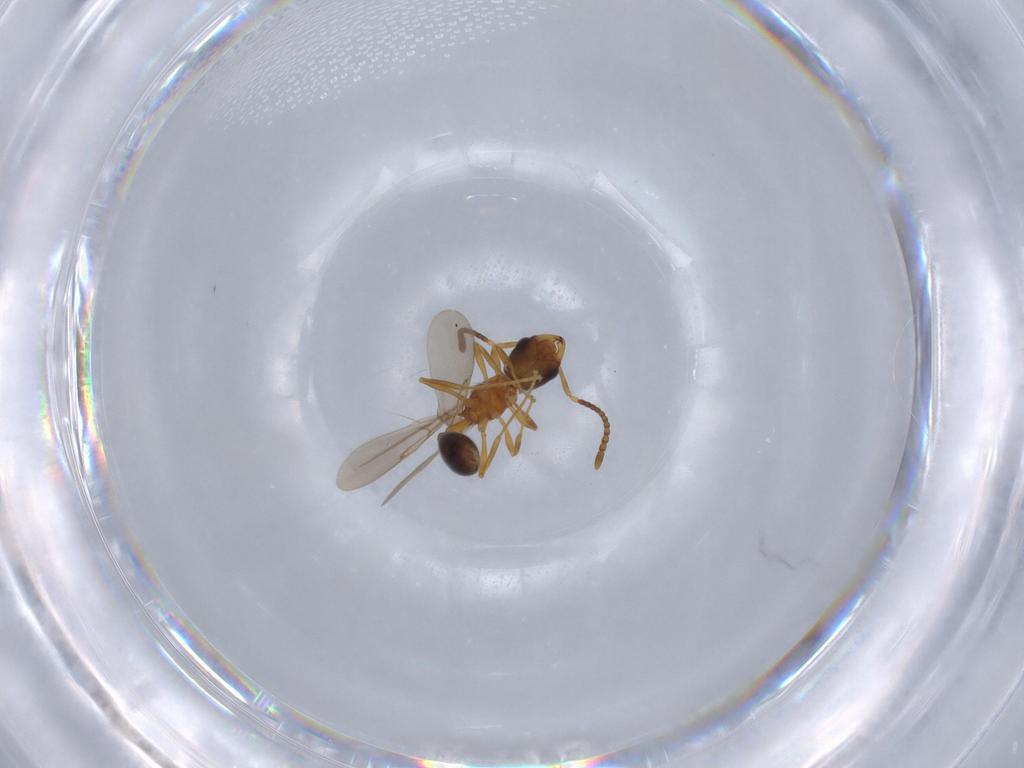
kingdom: Animalia
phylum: Arthropoda
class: Insecta
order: Hymenoptera
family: Formicidae
